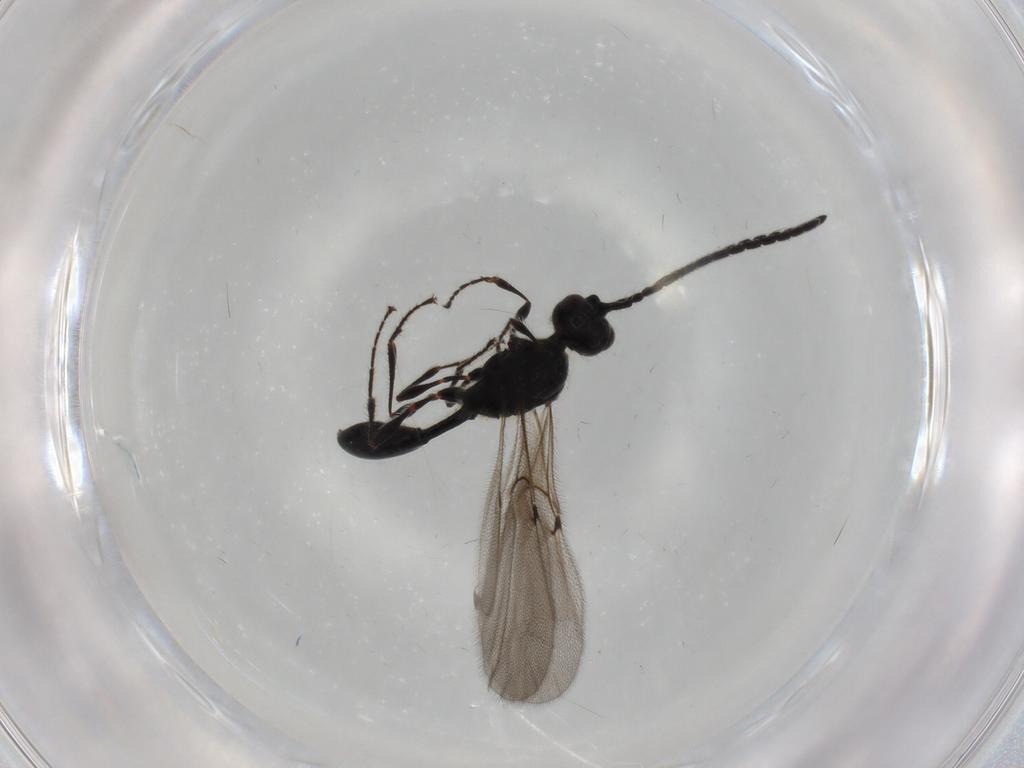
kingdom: Animalia
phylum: Arthropoda
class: Insecta
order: Hymenoptera
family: Diapriidae
